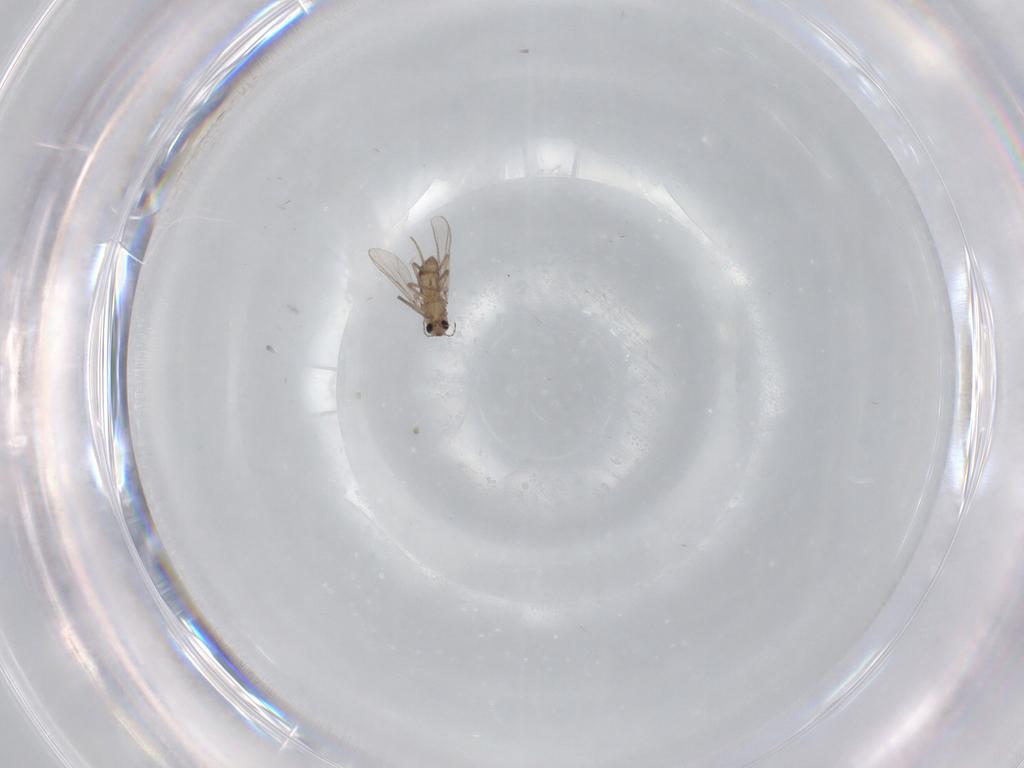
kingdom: Animalia
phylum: Arthropoda
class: Insecta
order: Diptera
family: Chironomidae
